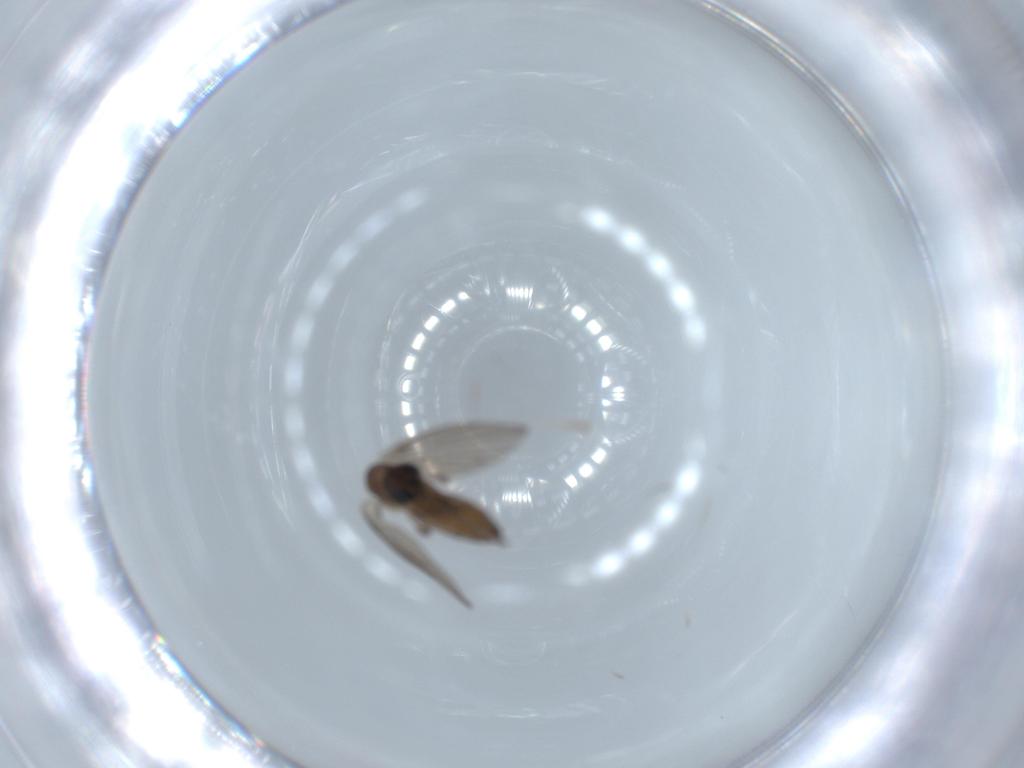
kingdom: Animalia
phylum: Arthropoda
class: Insecta
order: Diptera
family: Psychodidae
